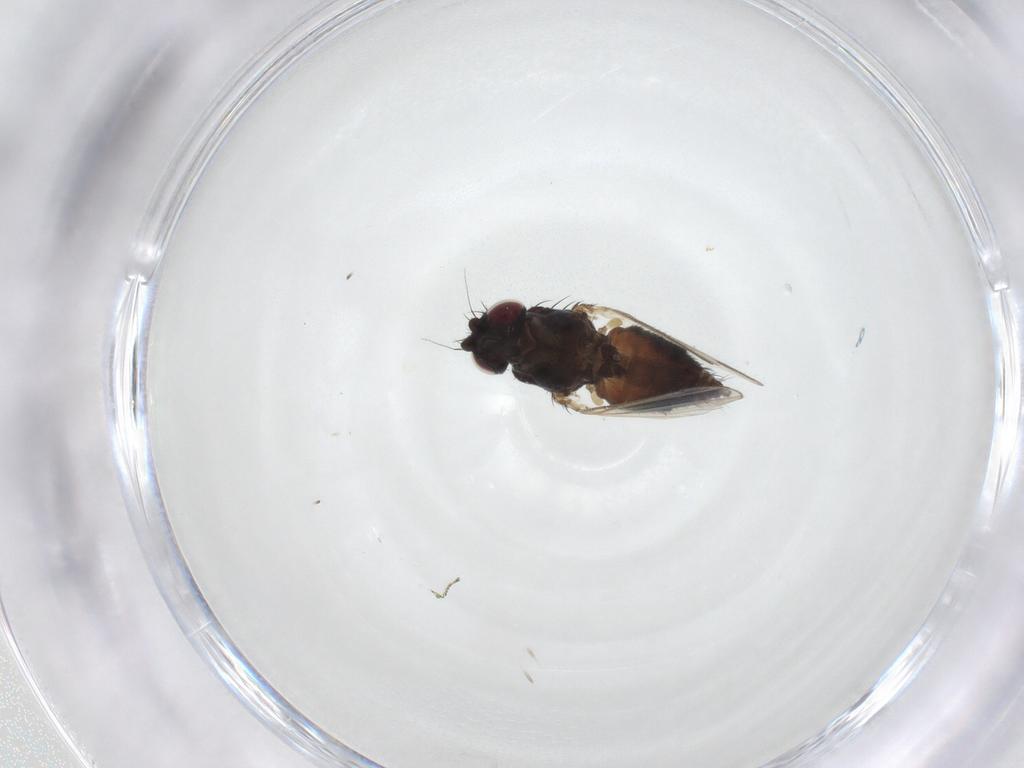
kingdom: Animalia
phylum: Arthropoda
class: Insecta
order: Diptera
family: Milichiidae
